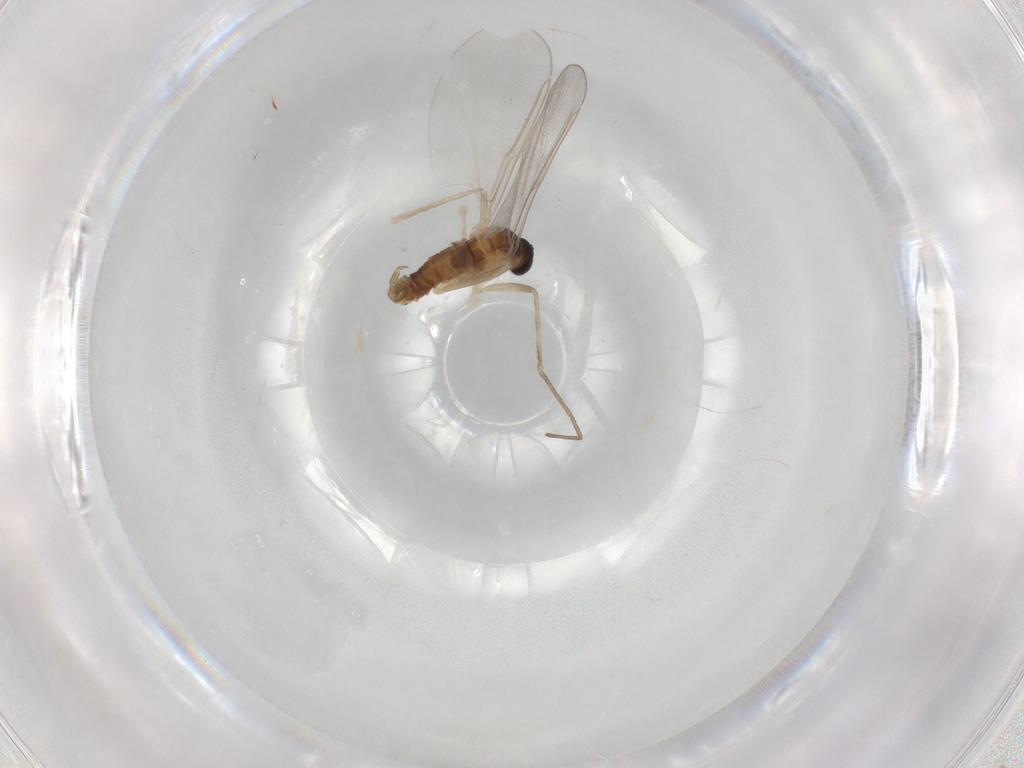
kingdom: Animalia
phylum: Arthropoda
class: Insecta
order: Diptera
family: Cecidomyiidae
